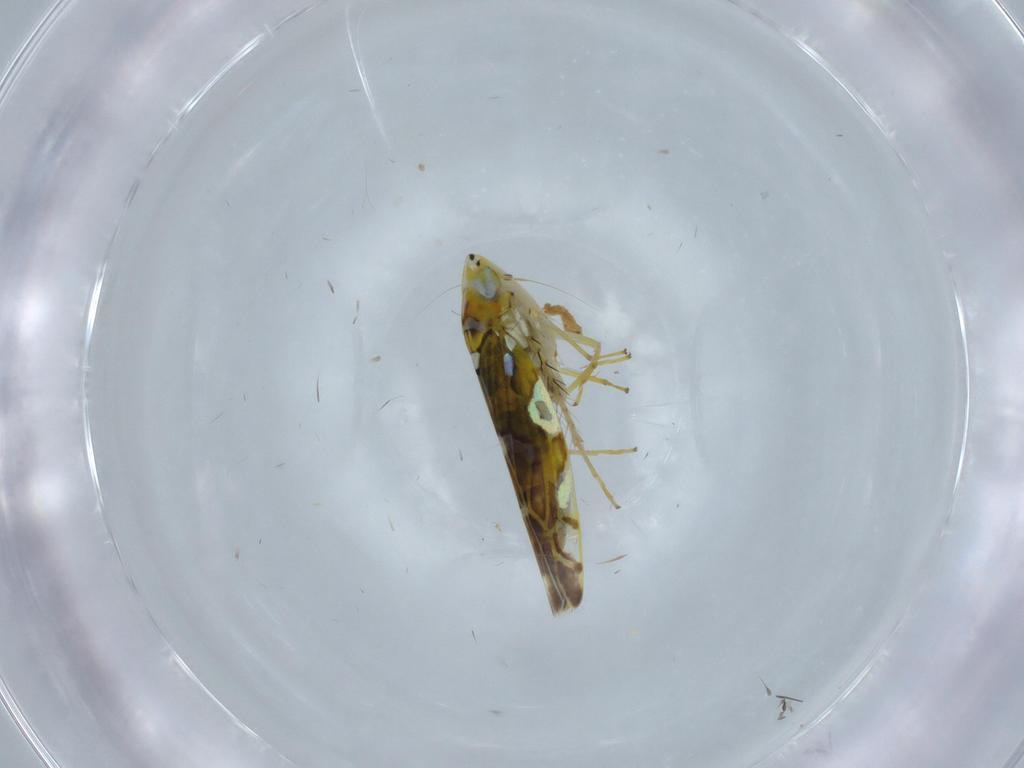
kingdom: Animalia
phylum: Arthropoda
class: Insecta
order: Hemiptera
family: Cicadellidae
